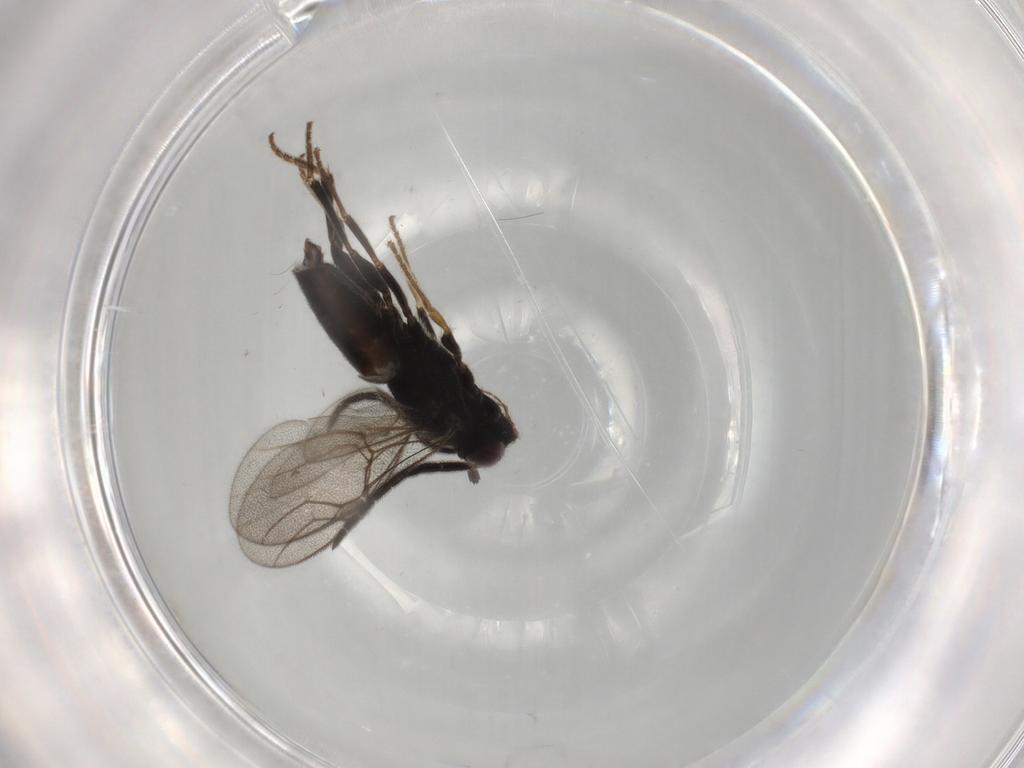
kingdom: Animalia
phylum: Arthropoda
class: Insecta
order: Hymenoptera
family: Dryinidae
